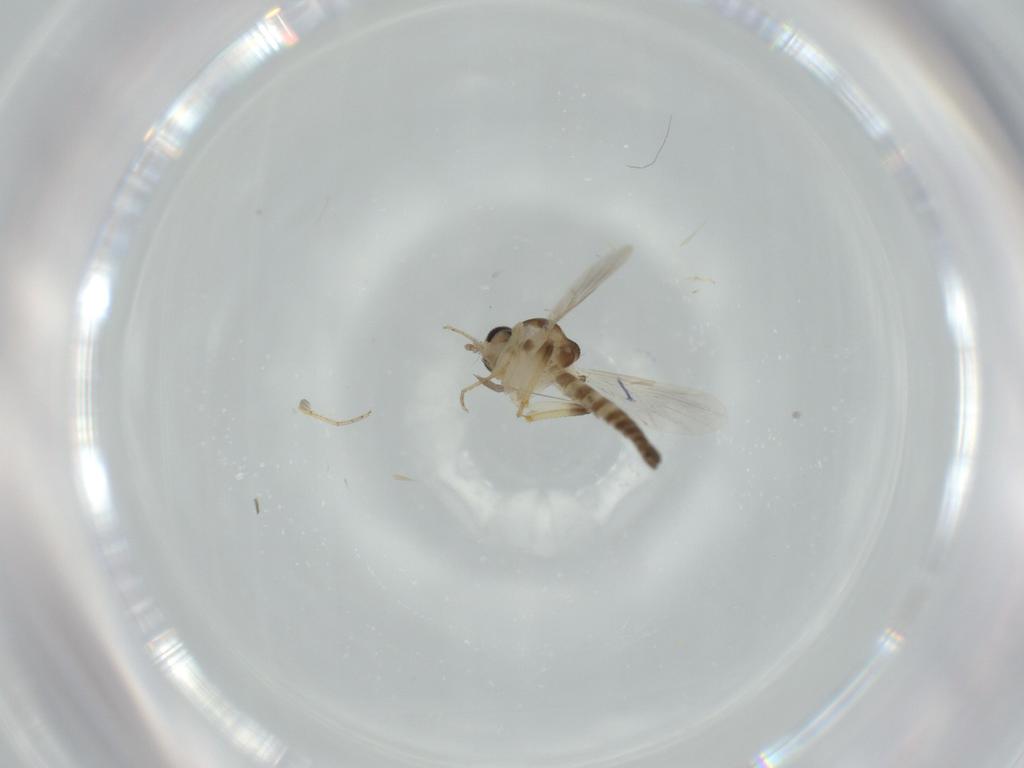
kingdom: Animalia
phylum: Arthropoda
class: Insecta
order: Diptera
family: Ceratopogonidae
